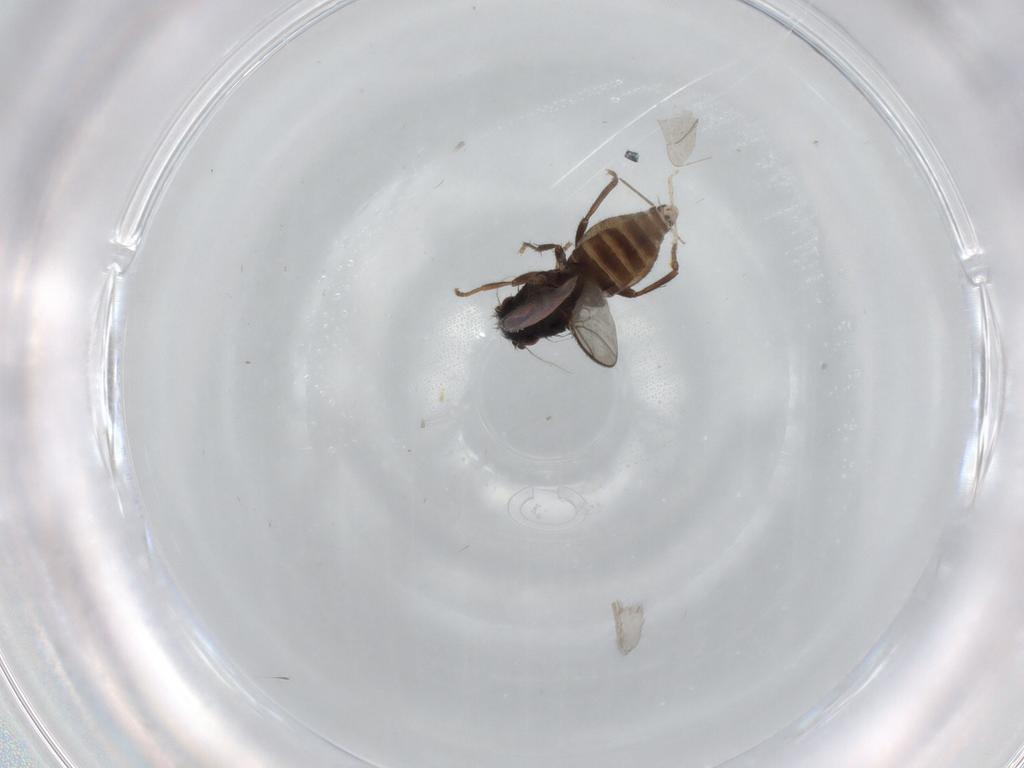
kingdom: Animalia
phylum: Arthropoda
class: Insecta
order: Diptera
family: Sphaeroceridae
